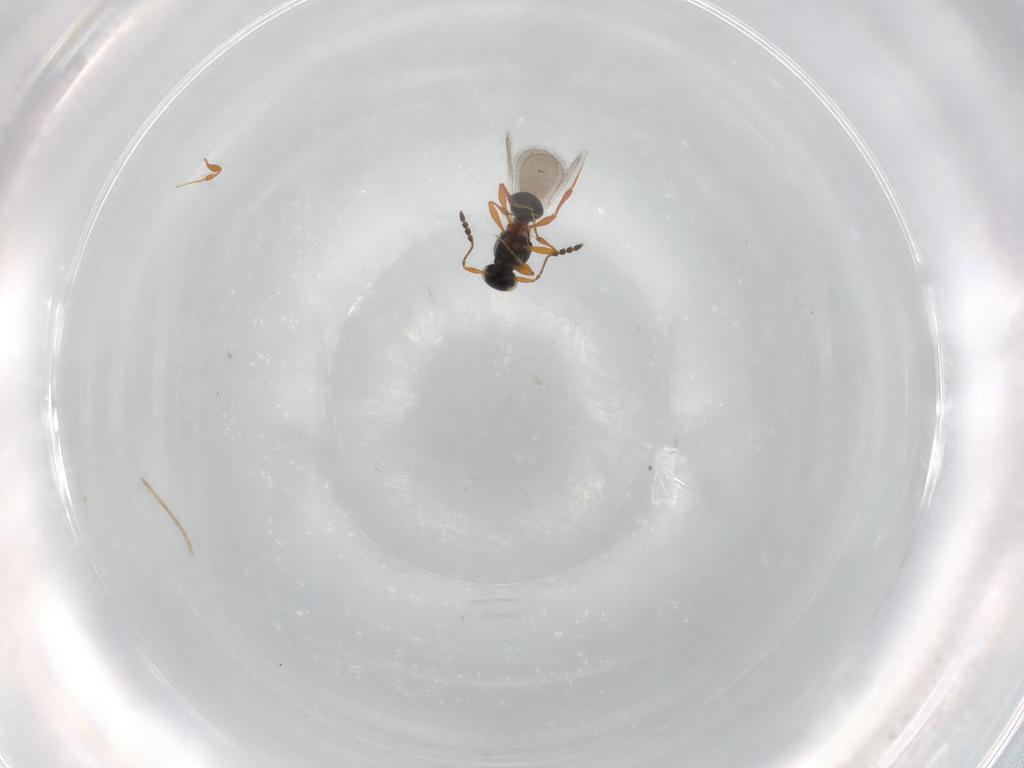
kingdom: Animalia
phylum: Arthropoda
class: Insecta
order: Hymenoptera
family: Platygastridae
